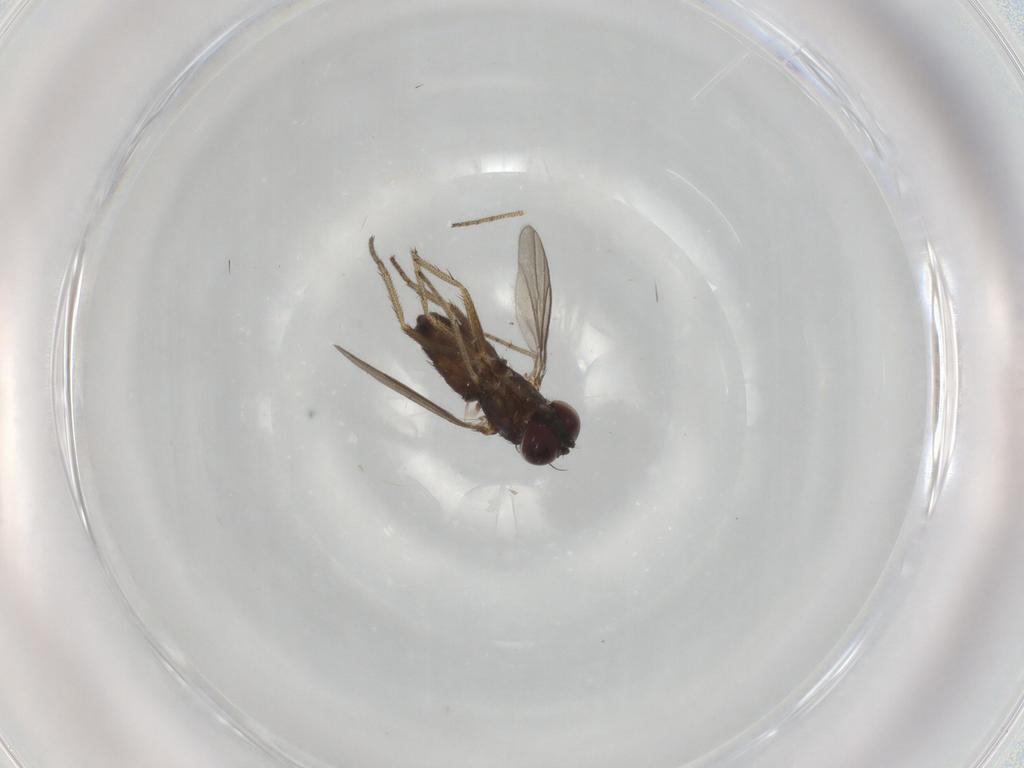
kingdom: Animalia
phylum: Arthropoda
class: Insecta
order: Diptera
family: Dolichopodidae
